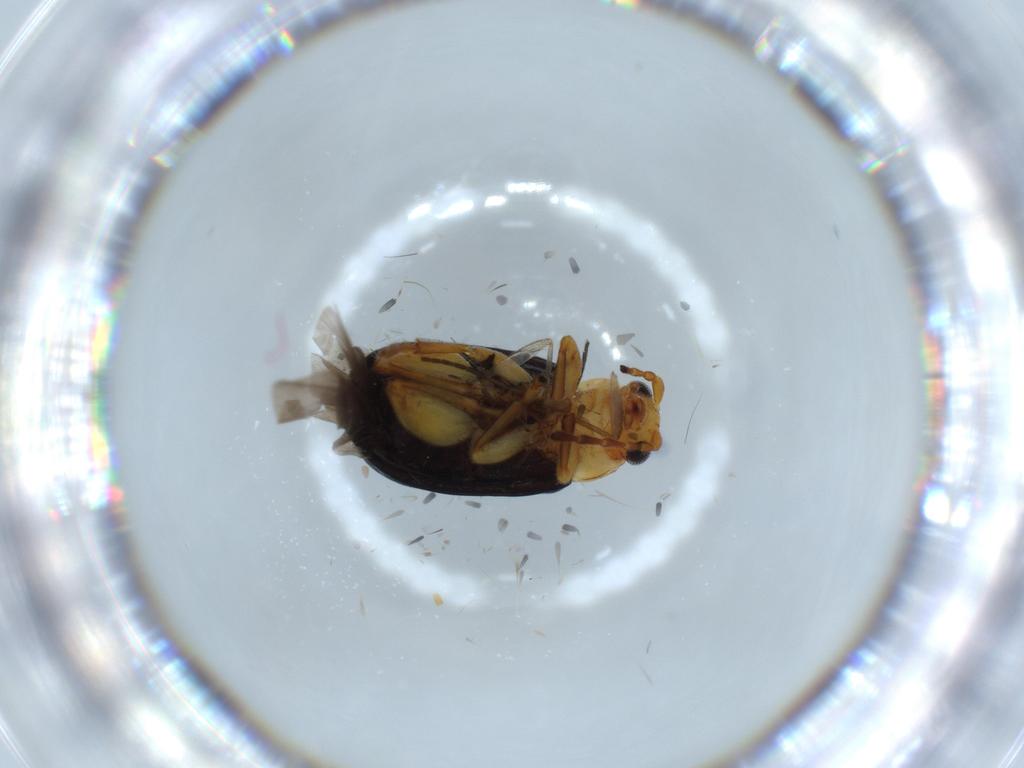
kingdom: Animalia
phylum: Arthropoda
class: Insecta
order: Coleoptera
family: Chrysomelidae
